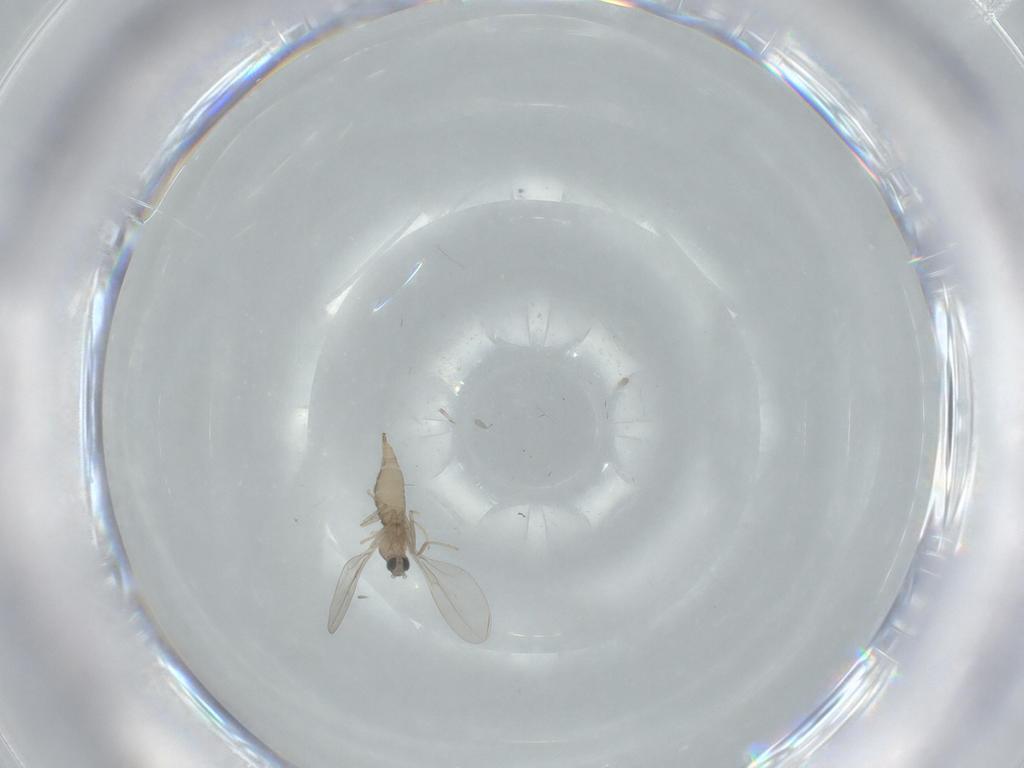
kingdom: Animalia
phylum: Arthropoda
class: Insecta
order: Diptera
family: Cecidomyiidae
